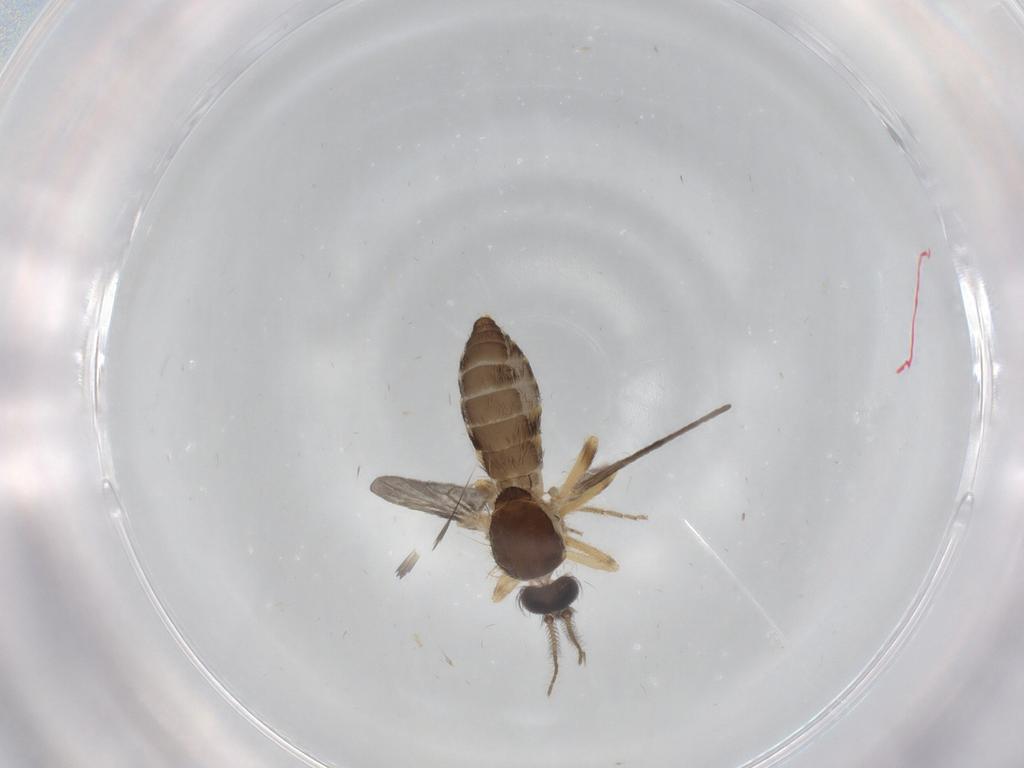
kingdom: Animalia
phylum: Arthropoda
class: Insecta
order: Diptera
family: Ceratopogonidae
